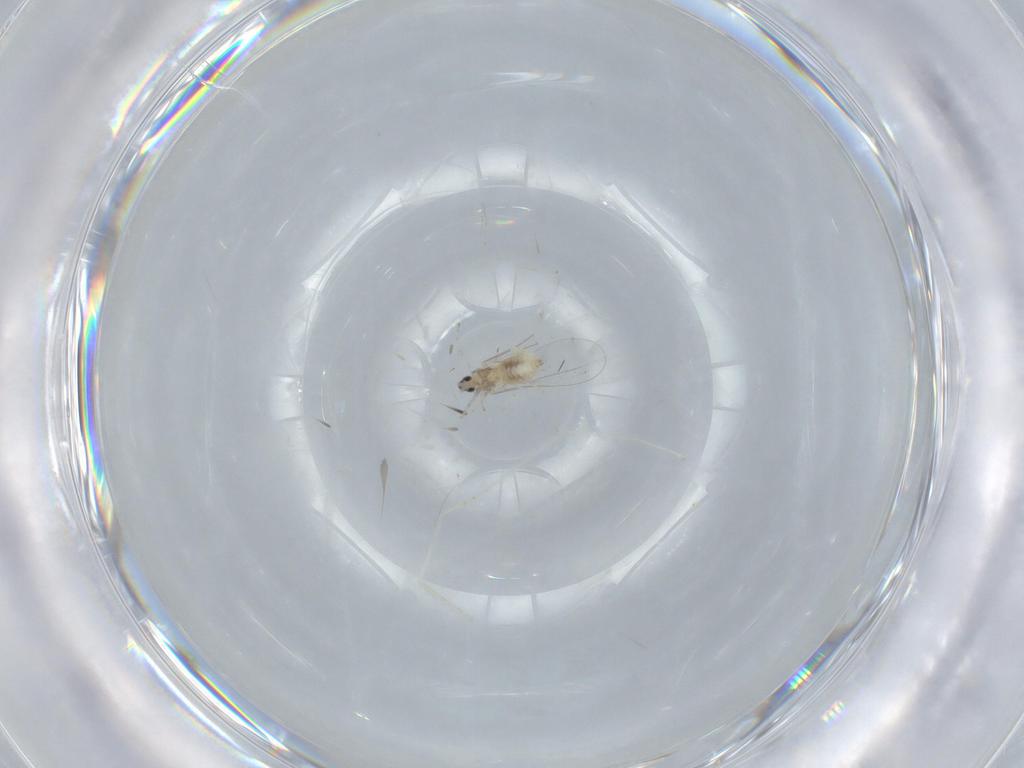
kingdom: Animalia
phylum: Arthropoda
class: Insecta
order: Diptera
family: Cecidomyiidae
